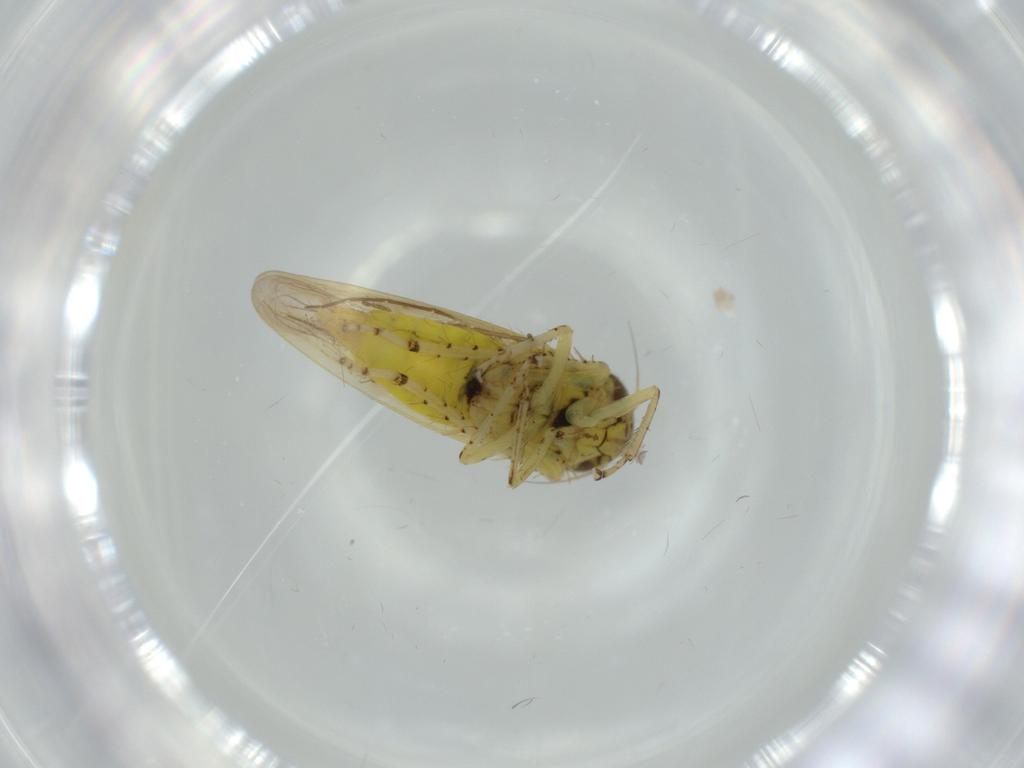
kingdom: Animalia
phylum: Arthropoda
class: Insecta
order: Hemiptera
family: Cicadellidae
